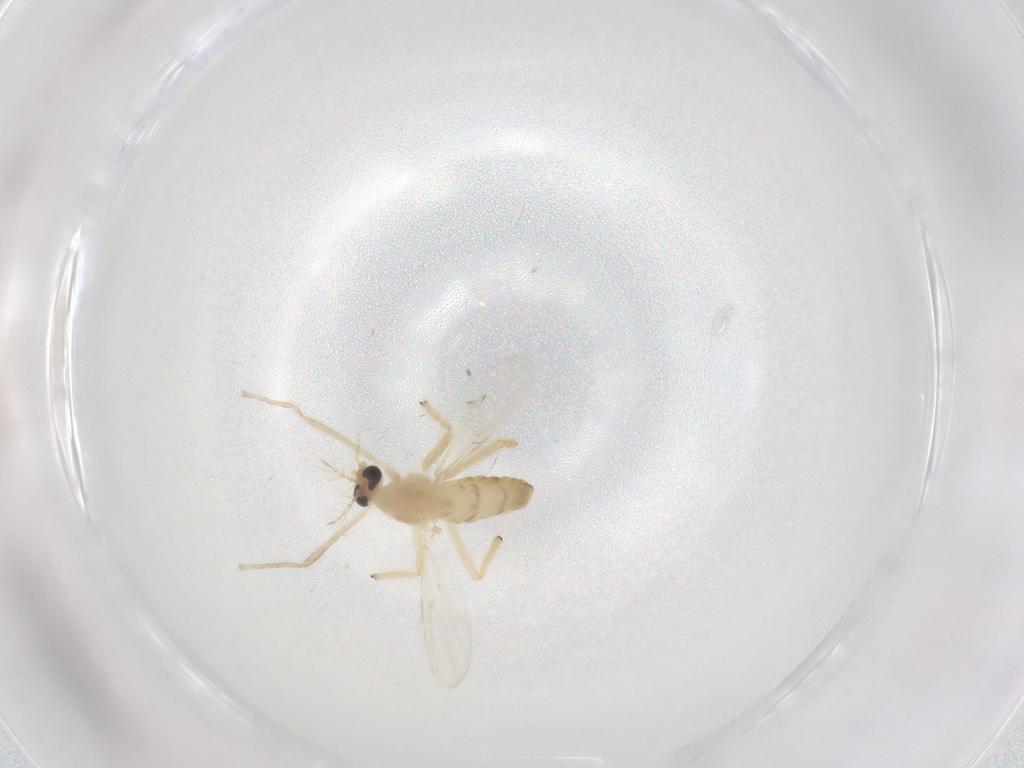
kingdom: Animalia
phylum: Arthropoda
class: Insecta
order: Diptera
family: Chironomidae
